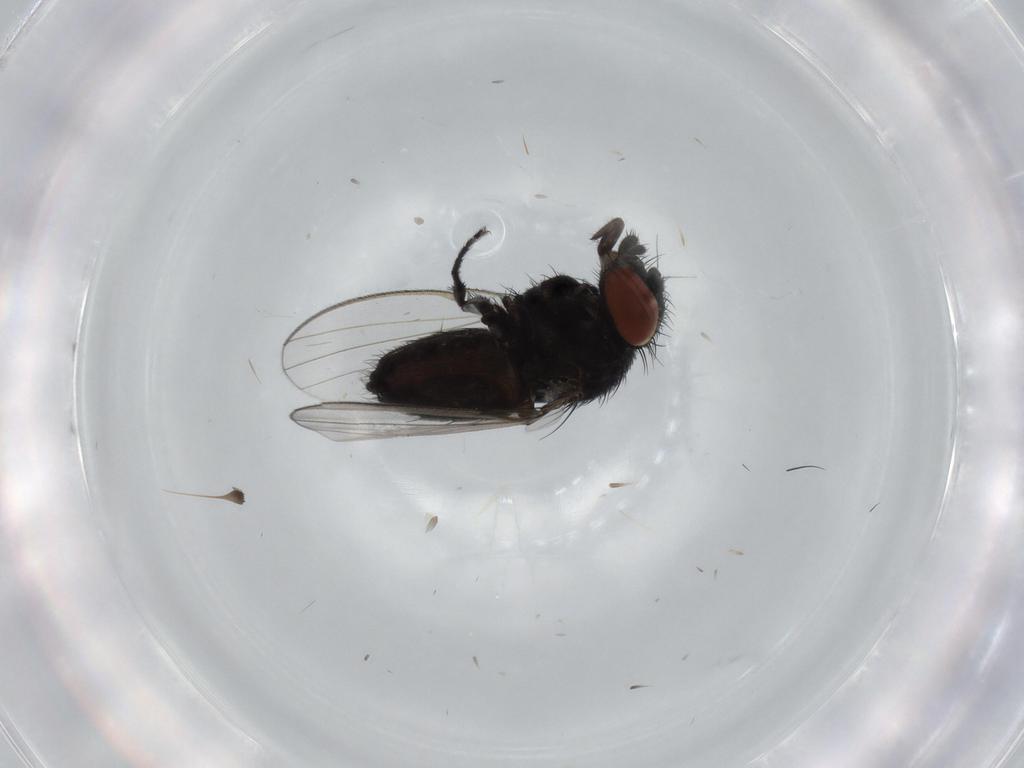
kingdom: Animalia
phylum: Arthropoda
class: Insecta
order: Diptera
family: Milichiidae
